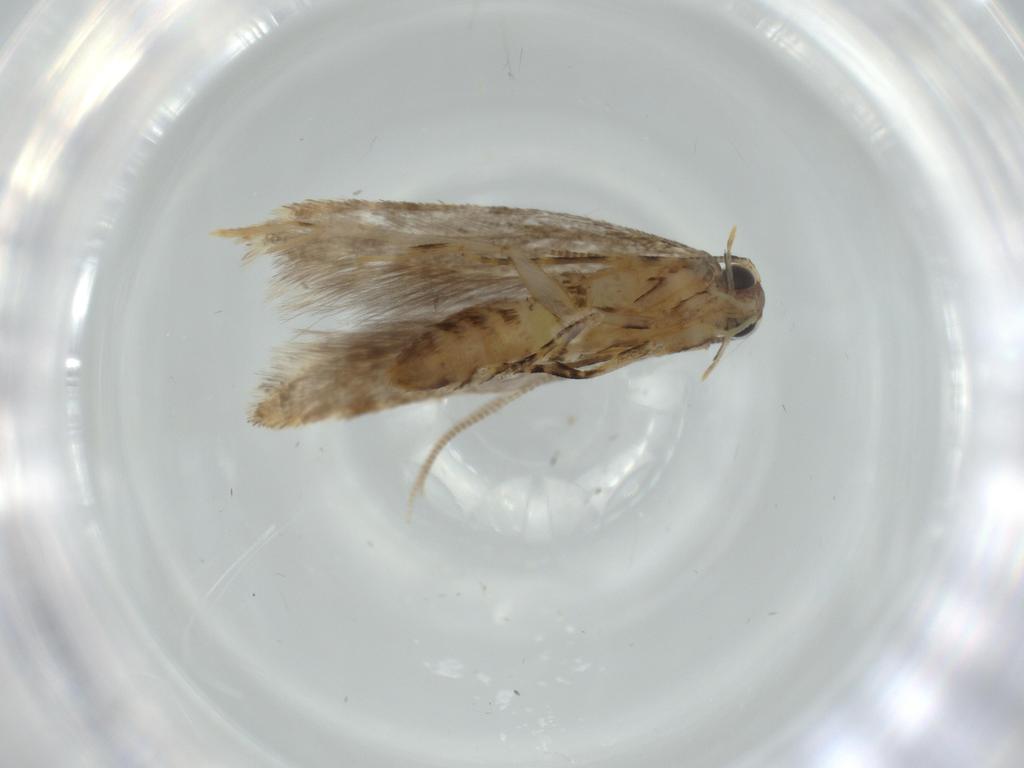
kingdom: Animalia
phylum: Arthropoda
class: Insecta
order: Lepidoptera
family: Tineidae
